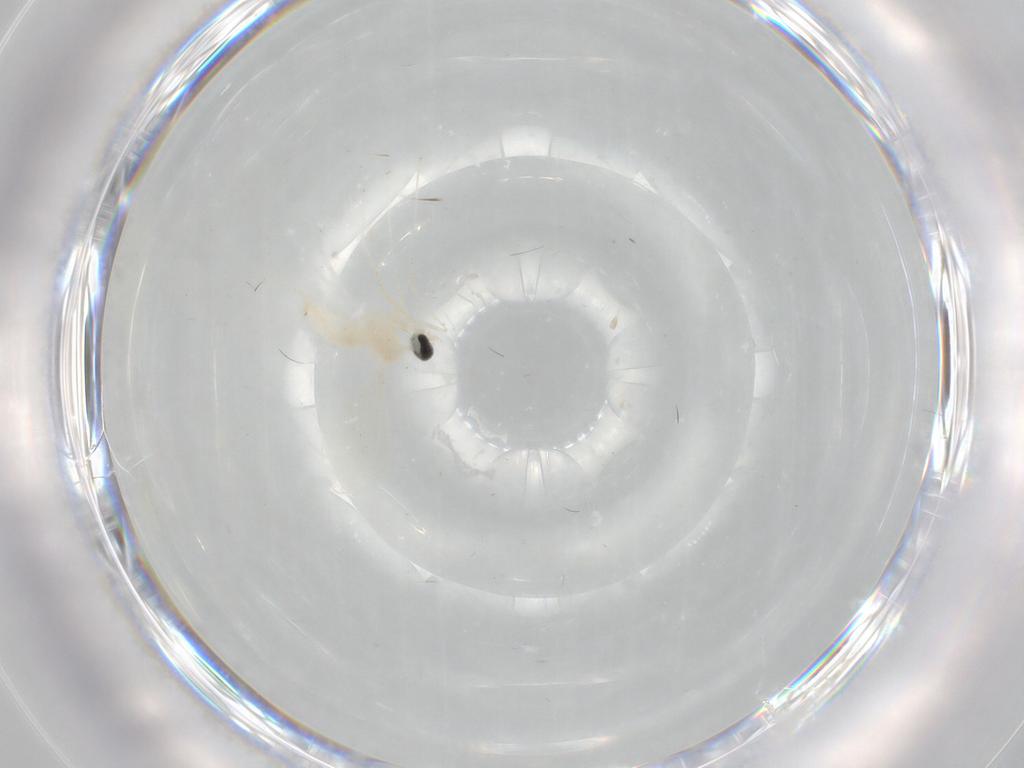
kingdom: Animalia
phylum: Arthropoda
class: Insecta
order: Diptera
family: Cecidomyiidae
